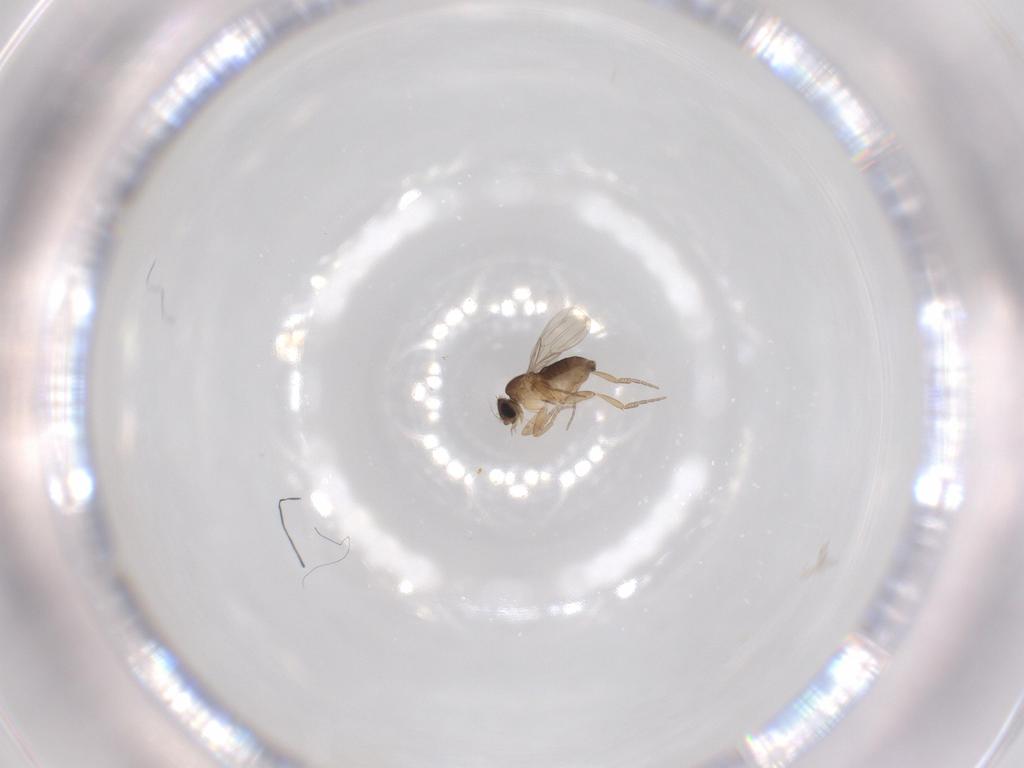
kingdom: Animalia
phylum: Arthropoda
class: Insecta
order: Diptera
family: Phoridae
